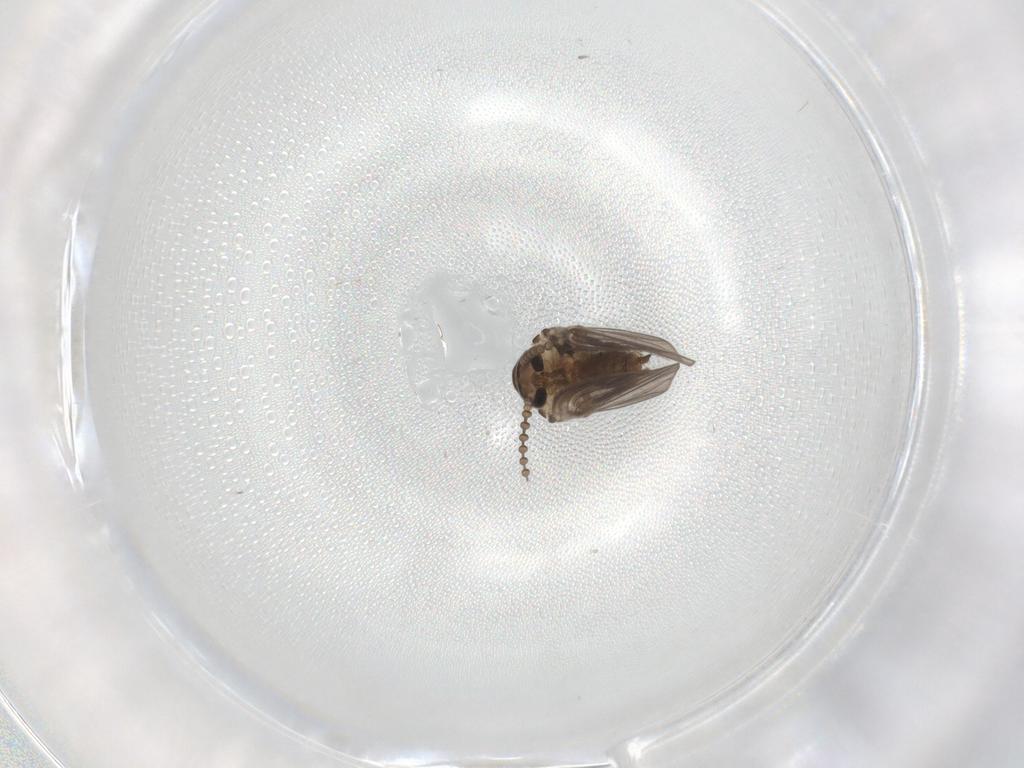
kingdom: Animalia
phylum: Arthropoda
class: Insecta
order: Diptera
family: Psychodidae
